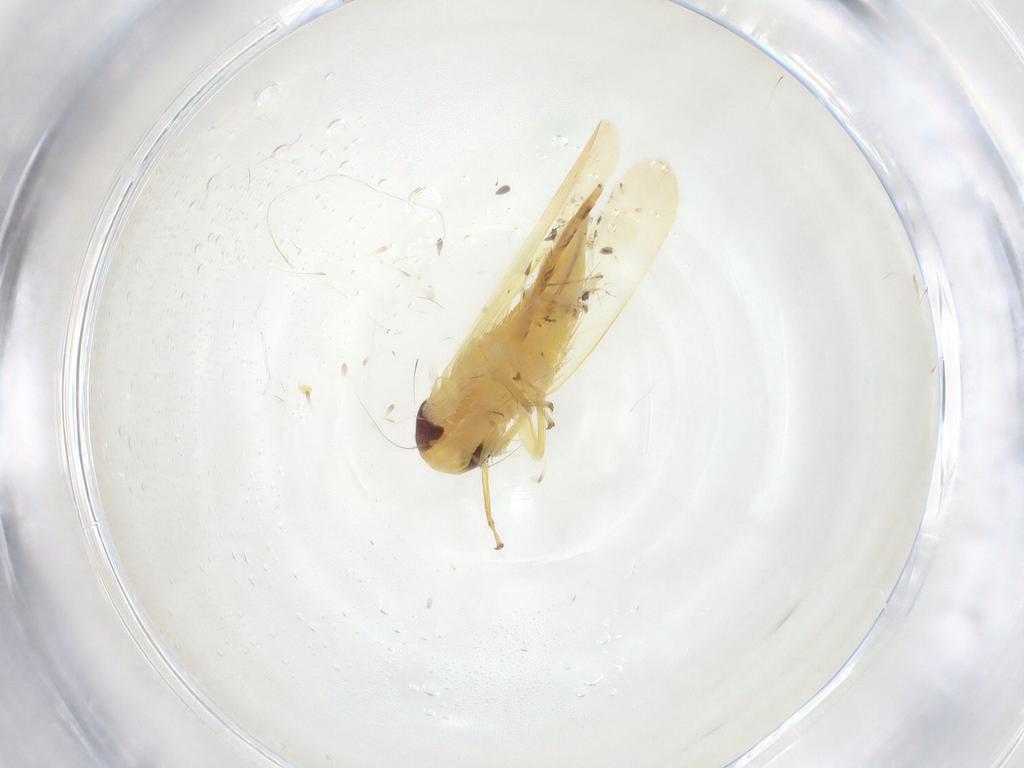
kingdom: Animalia
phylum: Arthropoda
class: Insecta
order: Hemiptera
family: Cicadellidae
